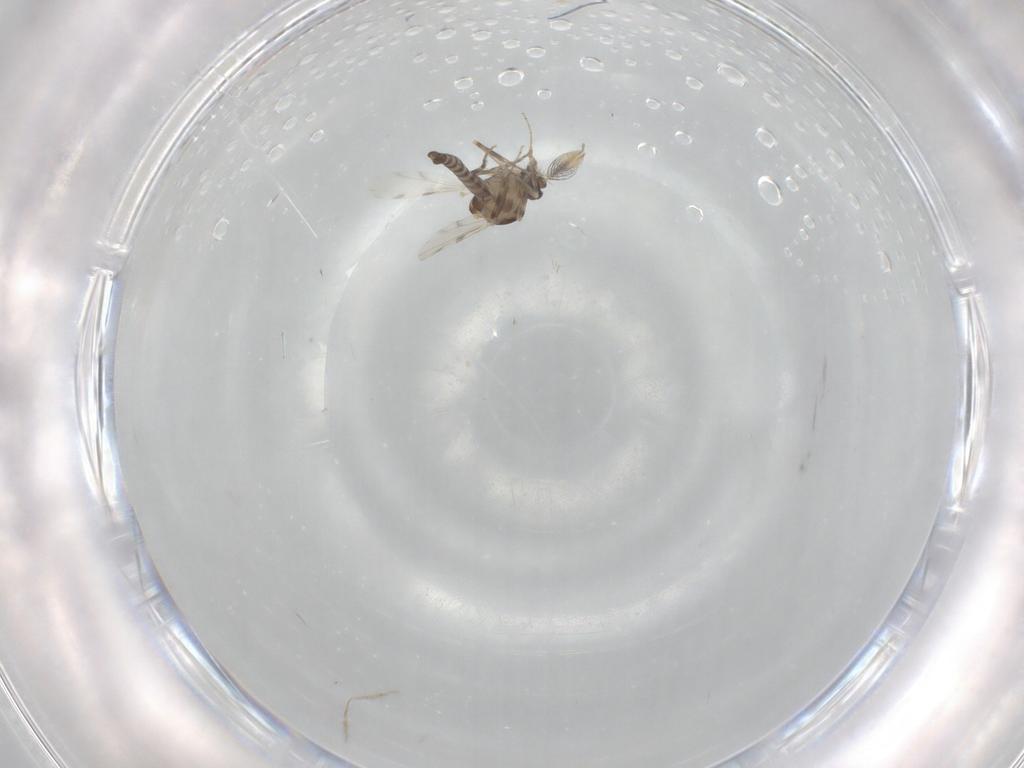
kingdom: Animalia
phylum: Arthropoda
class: Insecta
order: Diptera
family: Ceratopogonidae
